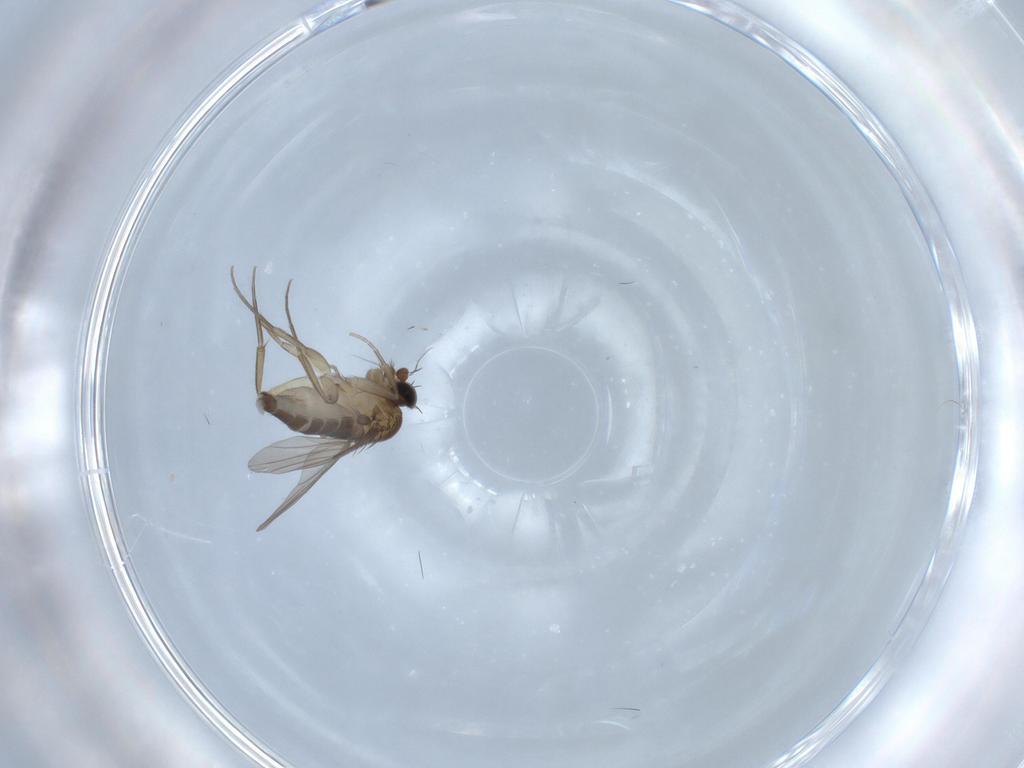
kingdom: Animalia
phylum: Arthropoda
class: Insecta
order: Diptera
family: Phoridae
